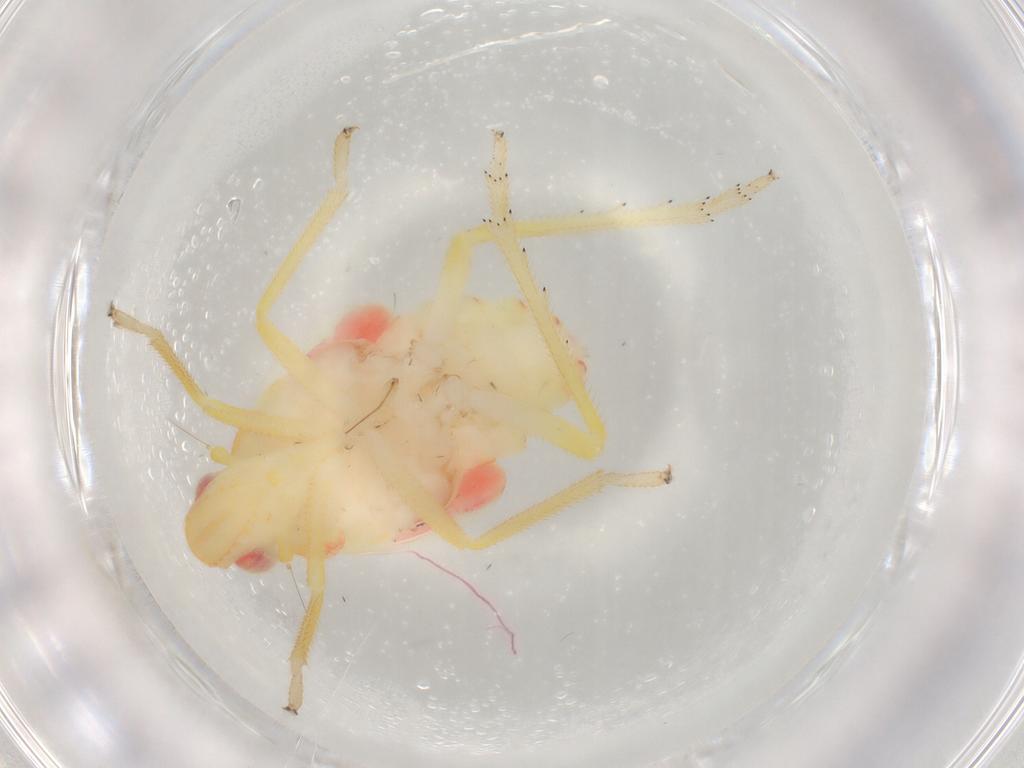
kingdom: Animalia
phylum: Arthropoda
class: Insecta
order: Hemiptera
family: Tropiduchidae
